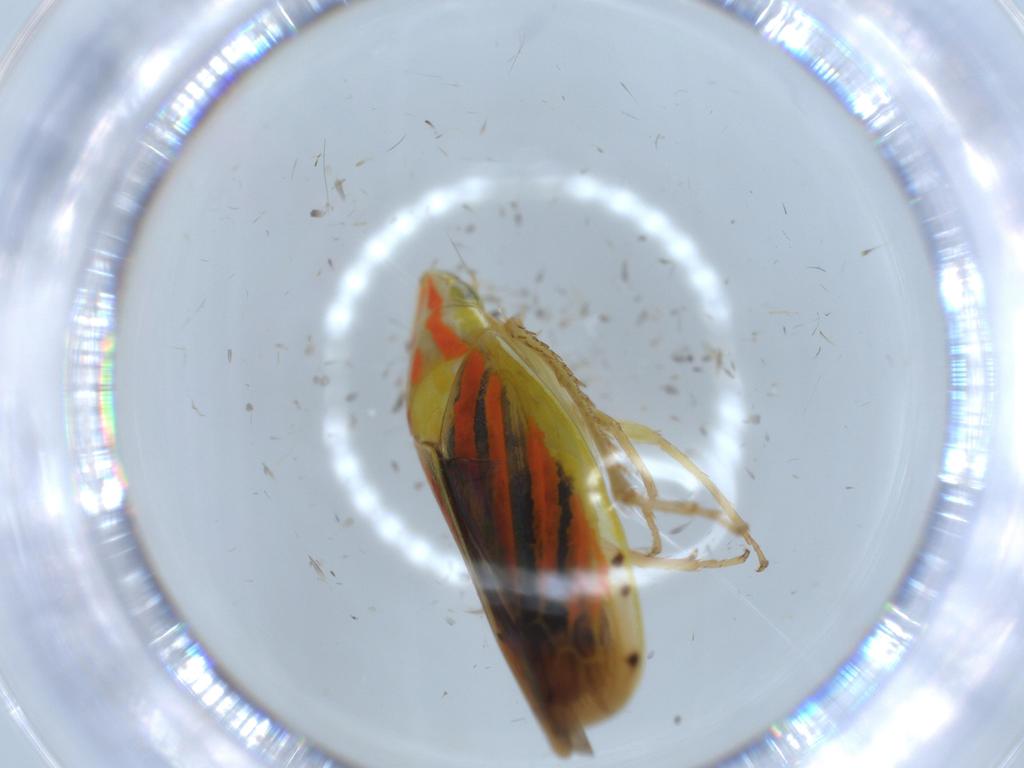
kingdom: Animalia
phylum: Arthropoda
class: Insecta
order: Hemiptera
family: Cicadellidae
